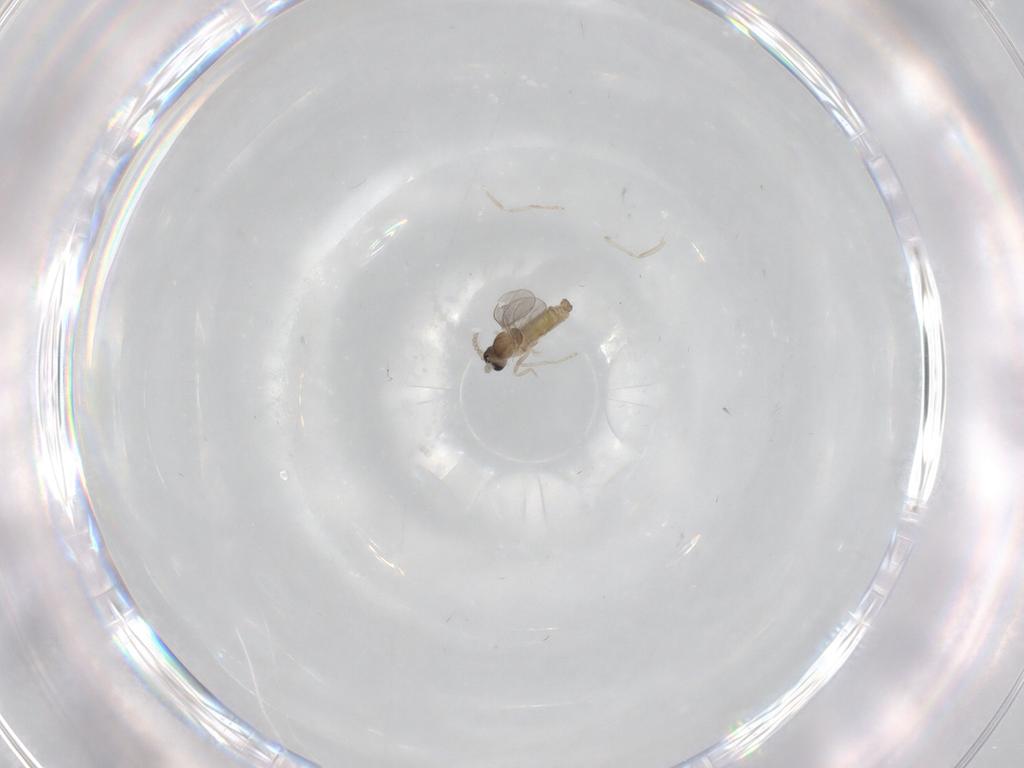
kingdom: Animalia
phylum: Arthropoda
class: Insecta
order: Diptera
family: Cecidomyiidae
